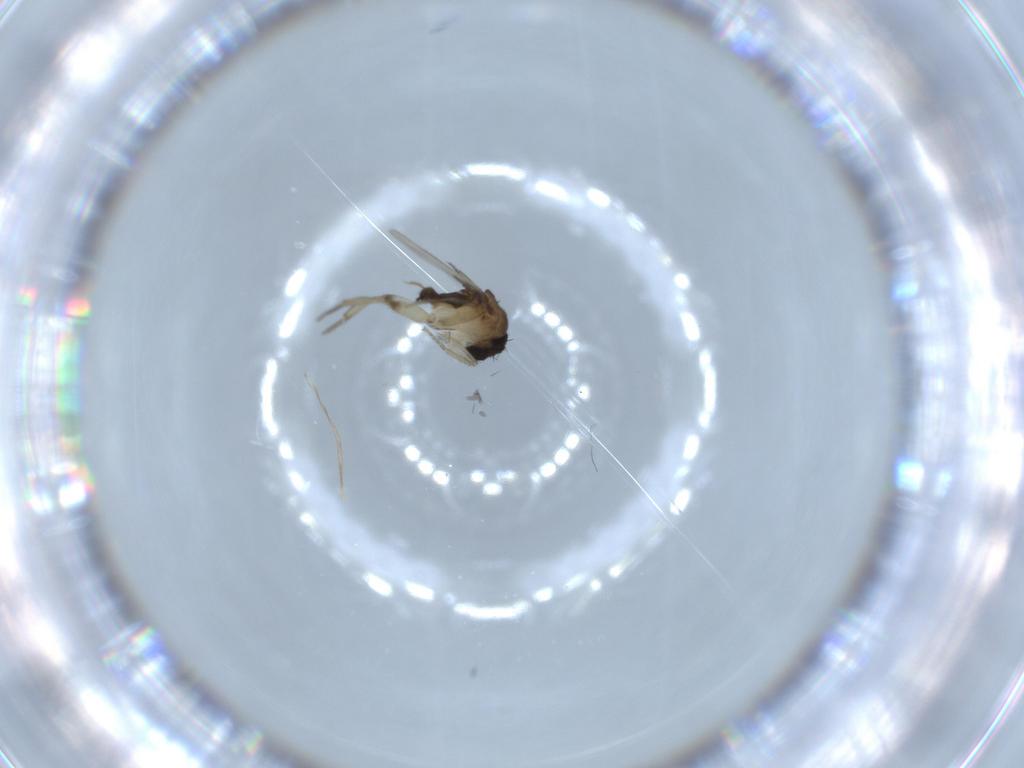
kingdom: Animalia
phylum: Arthropoda
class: Insecta
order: Diptera
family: Phoridae
